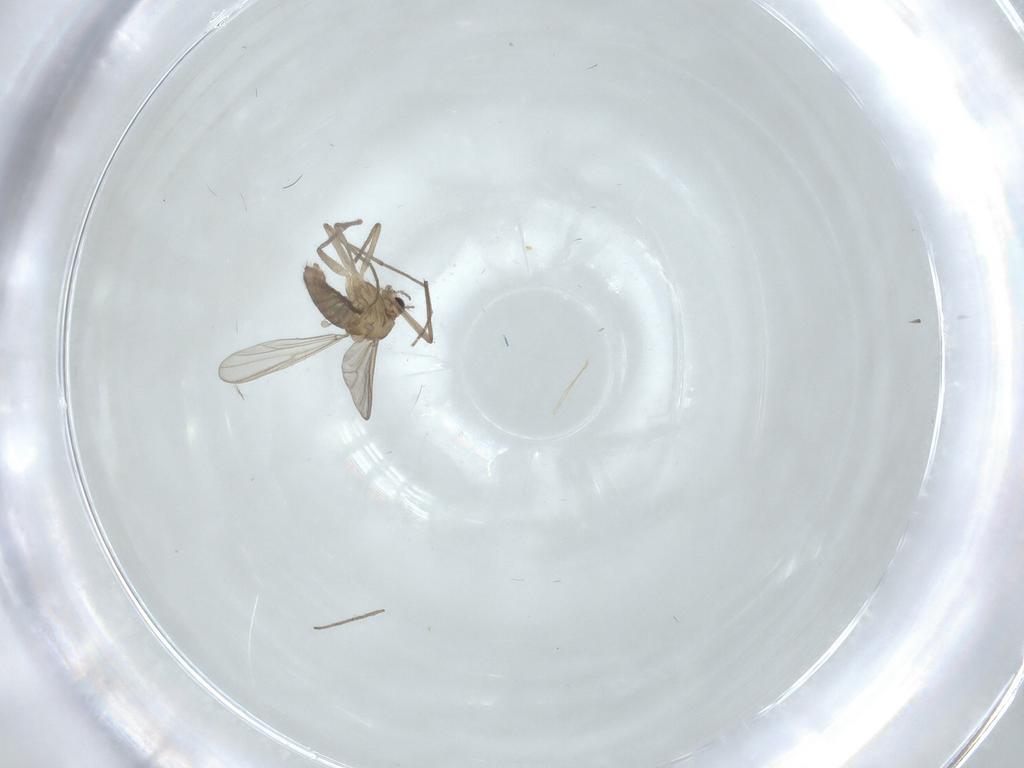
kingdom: Animalia
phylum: Arthropoda
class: Insecta
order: Diptera
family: Chironomidae
